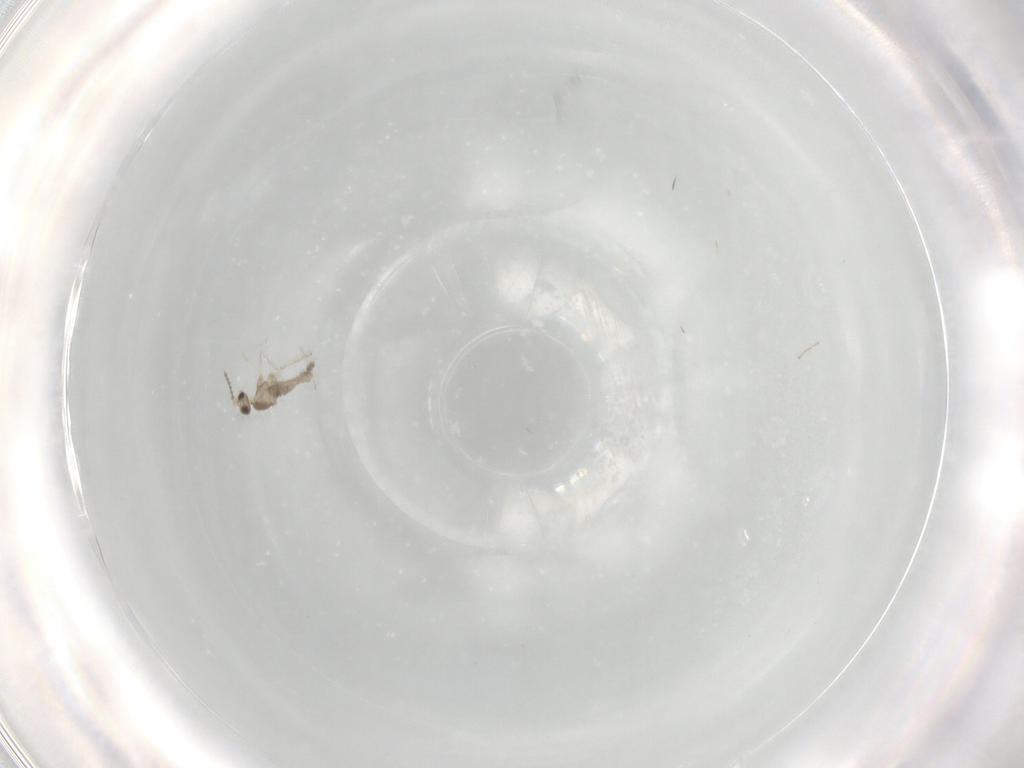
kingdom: Animalia
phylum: Arthropoda
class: Insecta
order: Diptera
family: Cecidomyiidae
